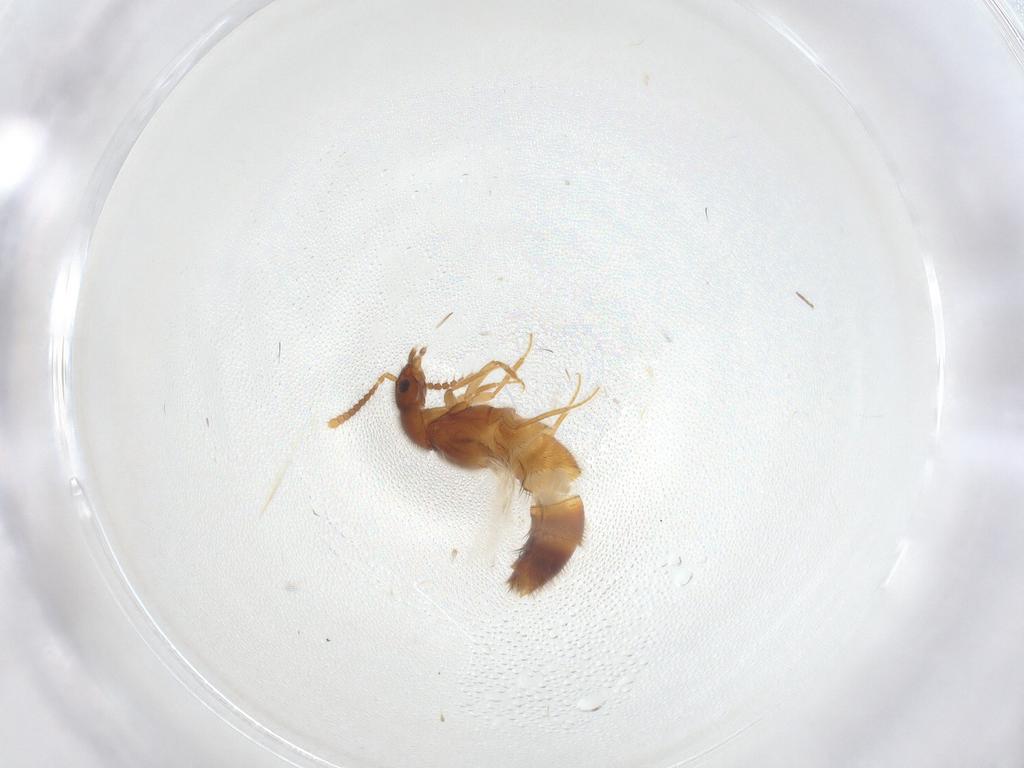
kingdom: Animalia
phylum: Arthropoda
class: Insecta
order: Coleoptera
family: Staphylinidae
